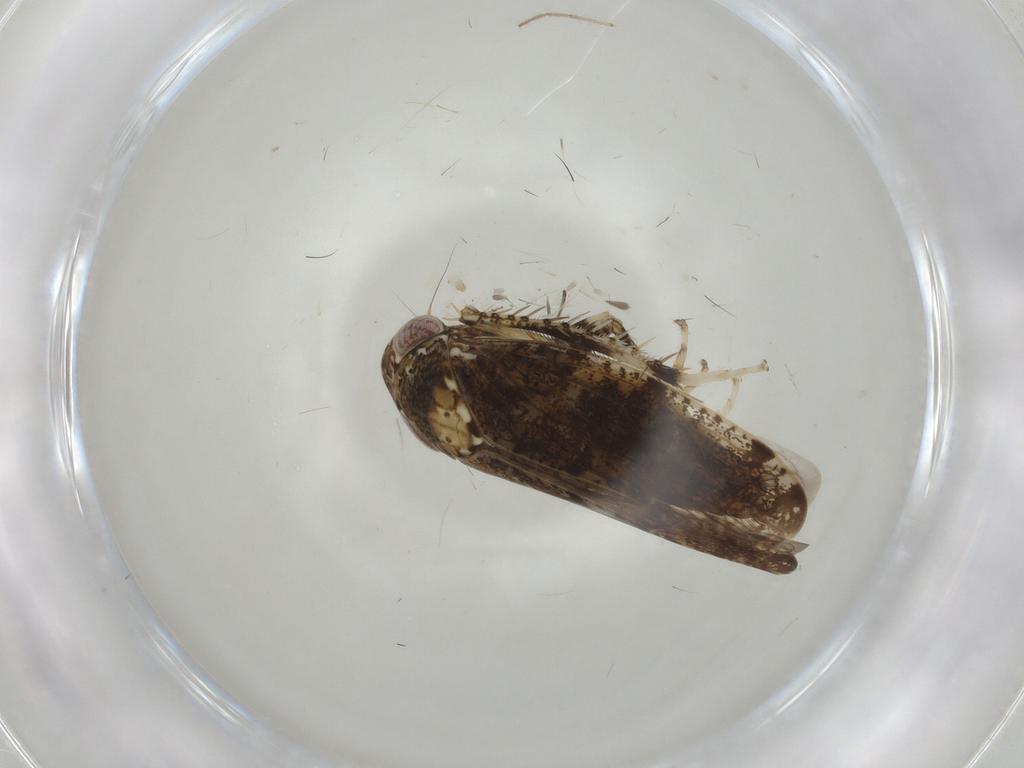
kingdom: Animalia
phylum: Arthropoda
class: Insecta
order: Hemiptera
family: Cicadellidae
